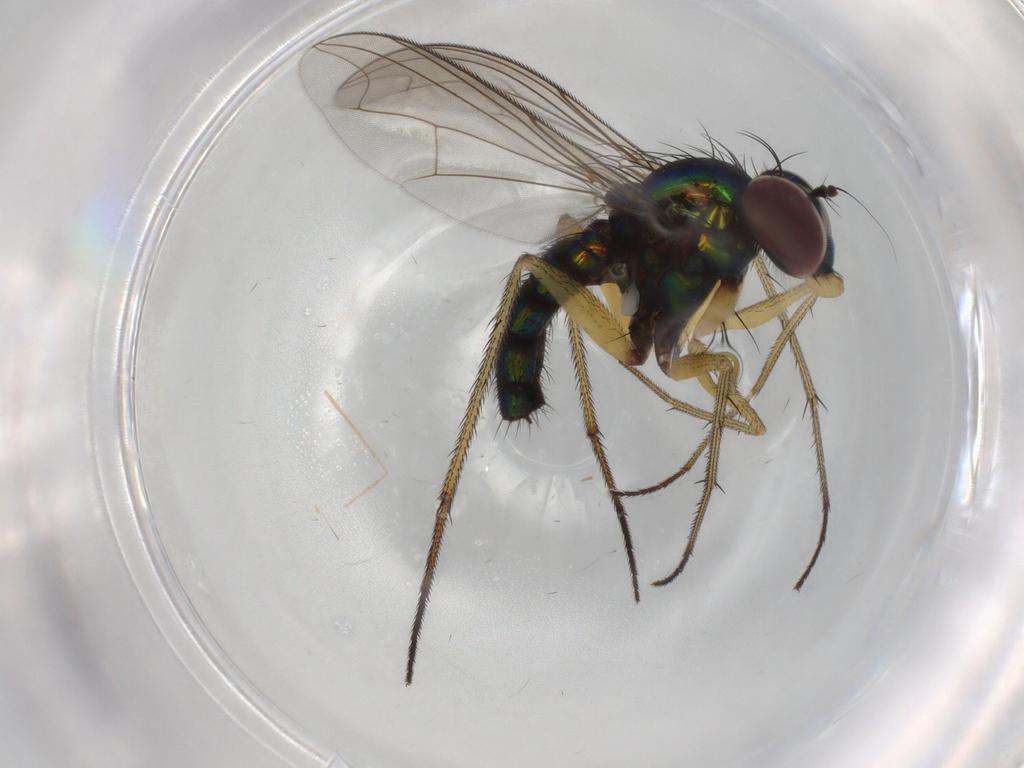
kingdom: Animalia
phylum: Arthropoda
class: Insecta
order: Diptera
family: Dolichopodidae
